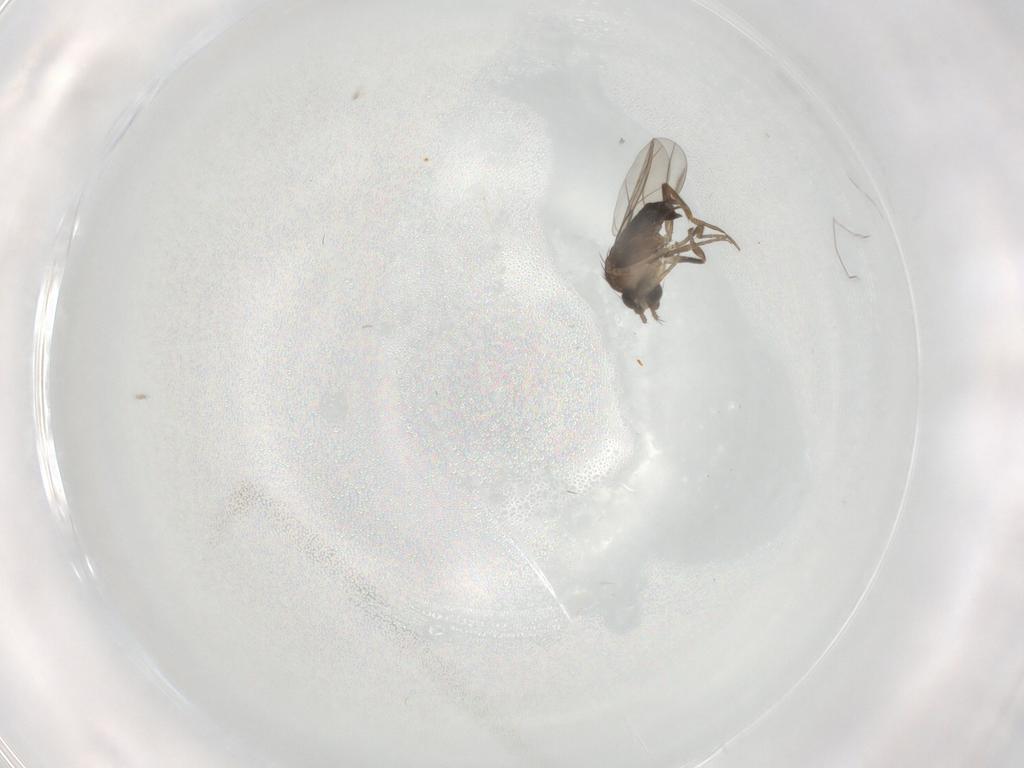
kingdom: Animalia
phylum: Arthropoda
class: Insecta
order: Diptera
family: Phoridae
